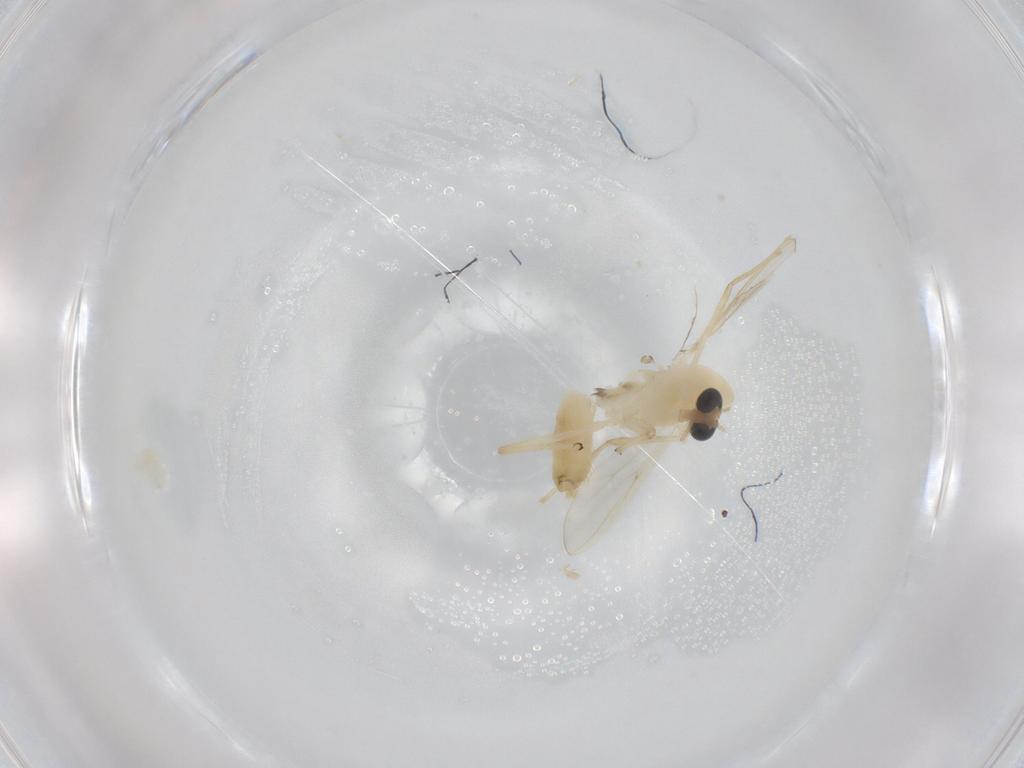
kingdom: Animalia
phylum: Arthropoda
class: Insecta
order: Diptera
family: Chironomidae
